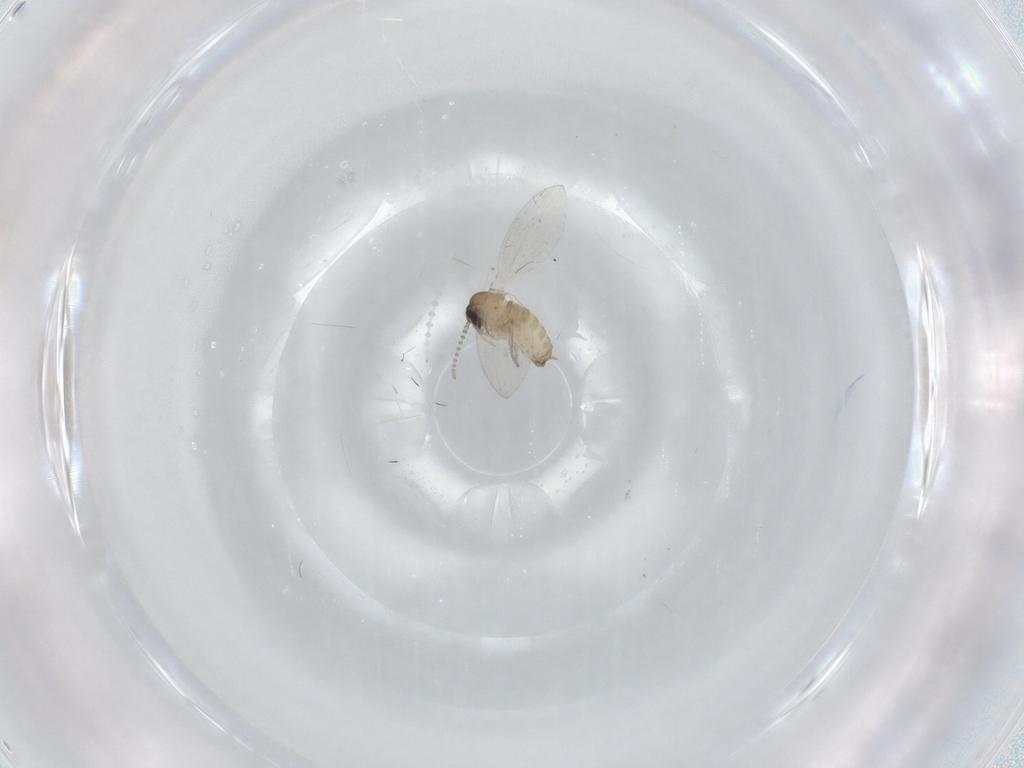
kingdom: Animalia
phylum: Arthropoda
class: Insecta
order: Diptera
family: Psychodidae
